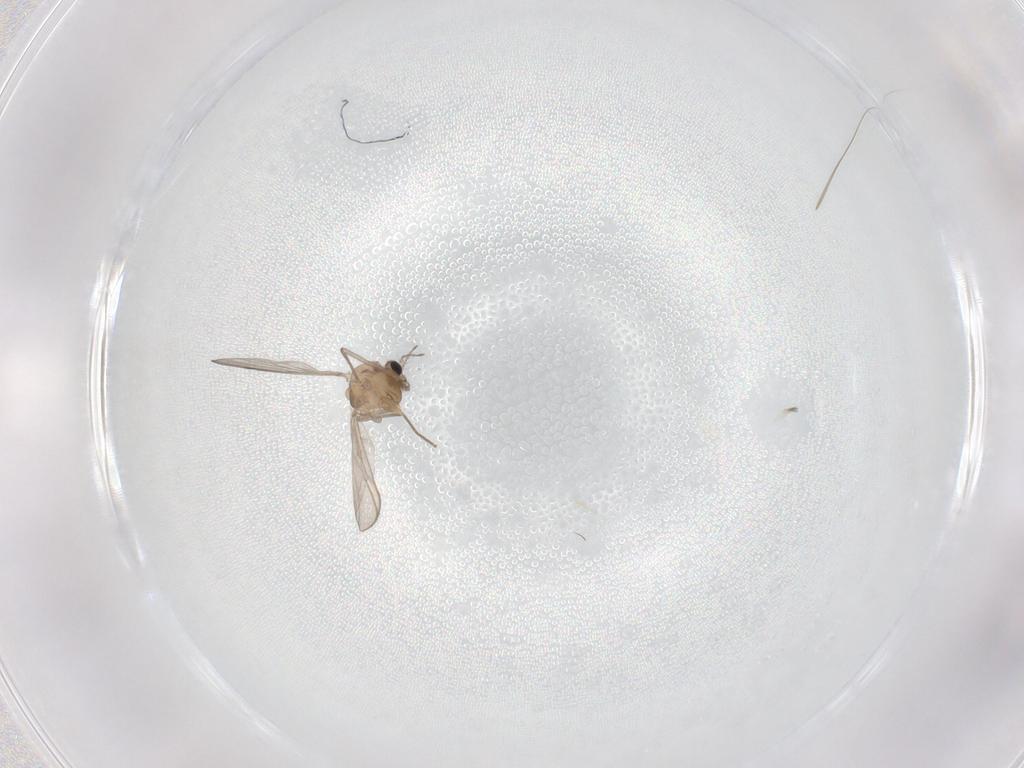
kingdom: Animalia
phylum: Arthropoda
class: Insecta
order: Diptera
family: Chironomidae
